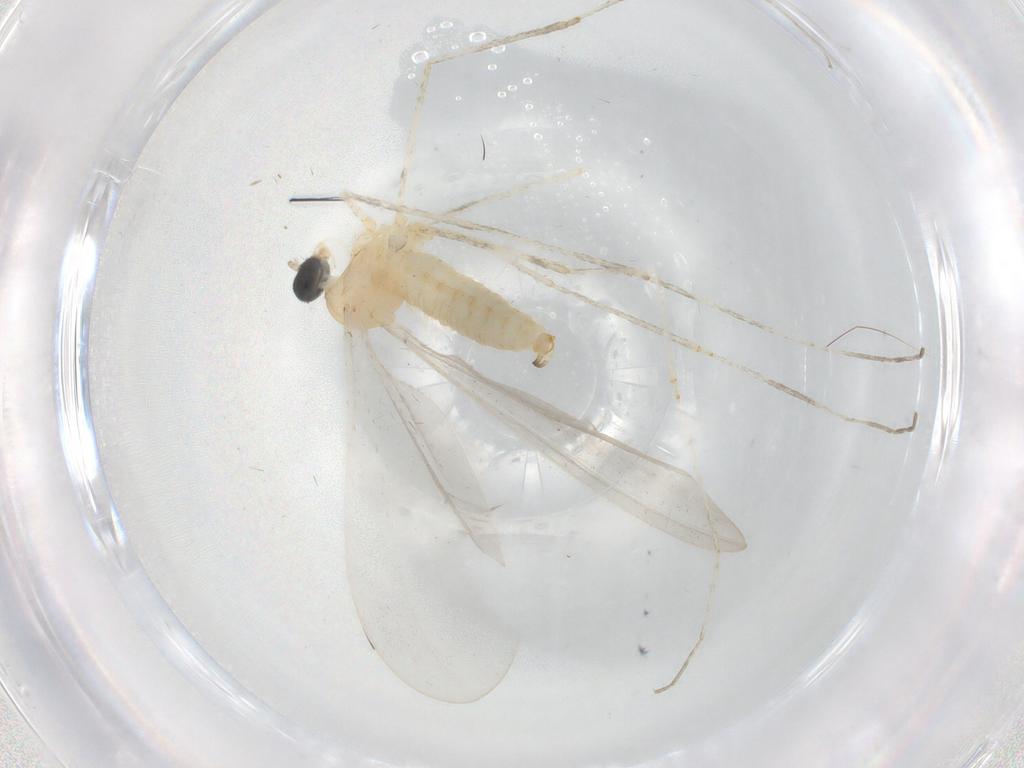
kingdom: Animalia
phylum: Arthropoda
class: Insecta
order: Diptera
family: Cecidomyiidae
